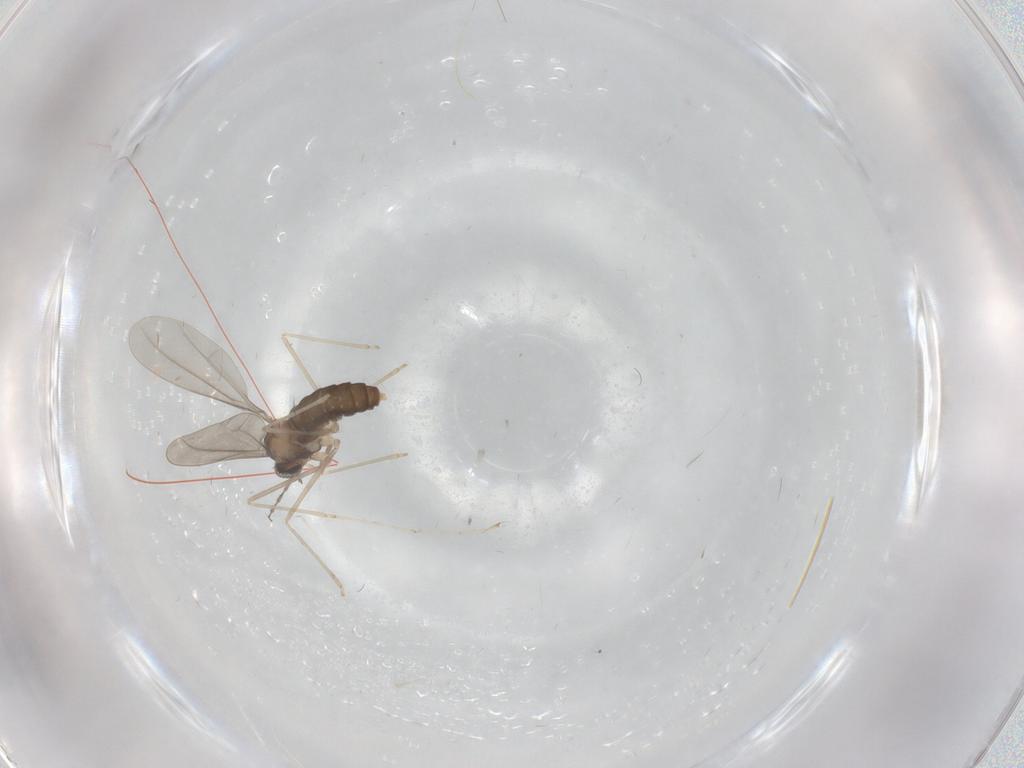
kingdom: Animalia
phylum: Arthropoda
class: Insecta
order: Diptera
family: Cecidomyiidae
